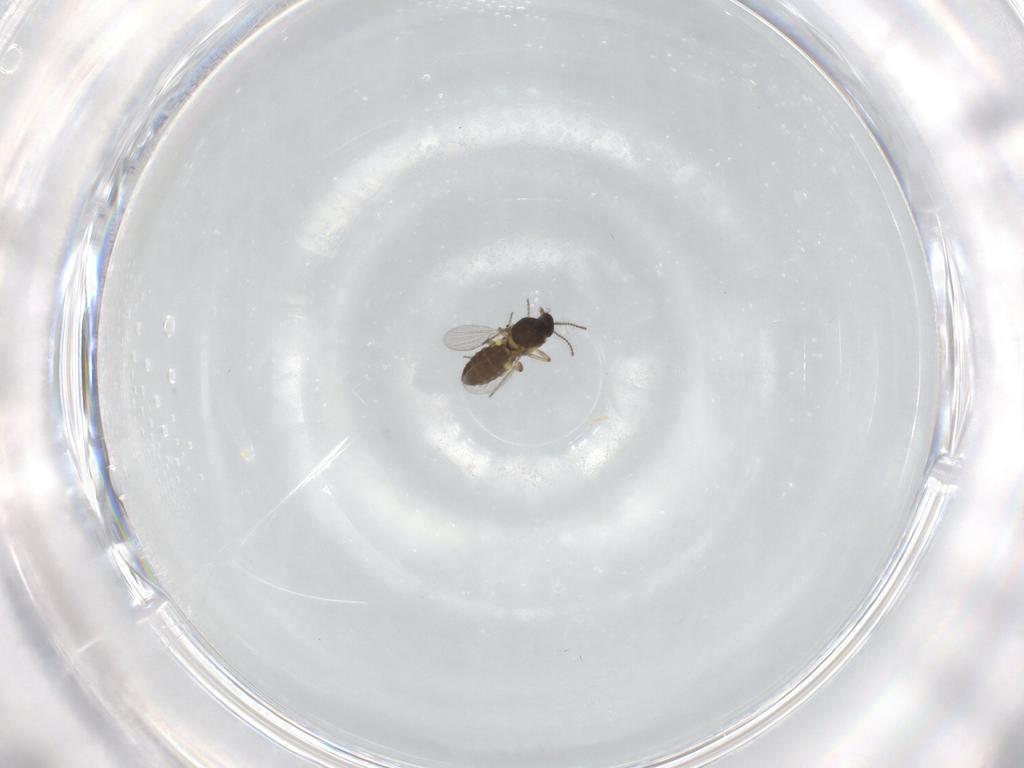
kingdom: Animalia
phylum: Arthropoda
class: Insecta
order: Diptera
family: Ceratopogonidae
